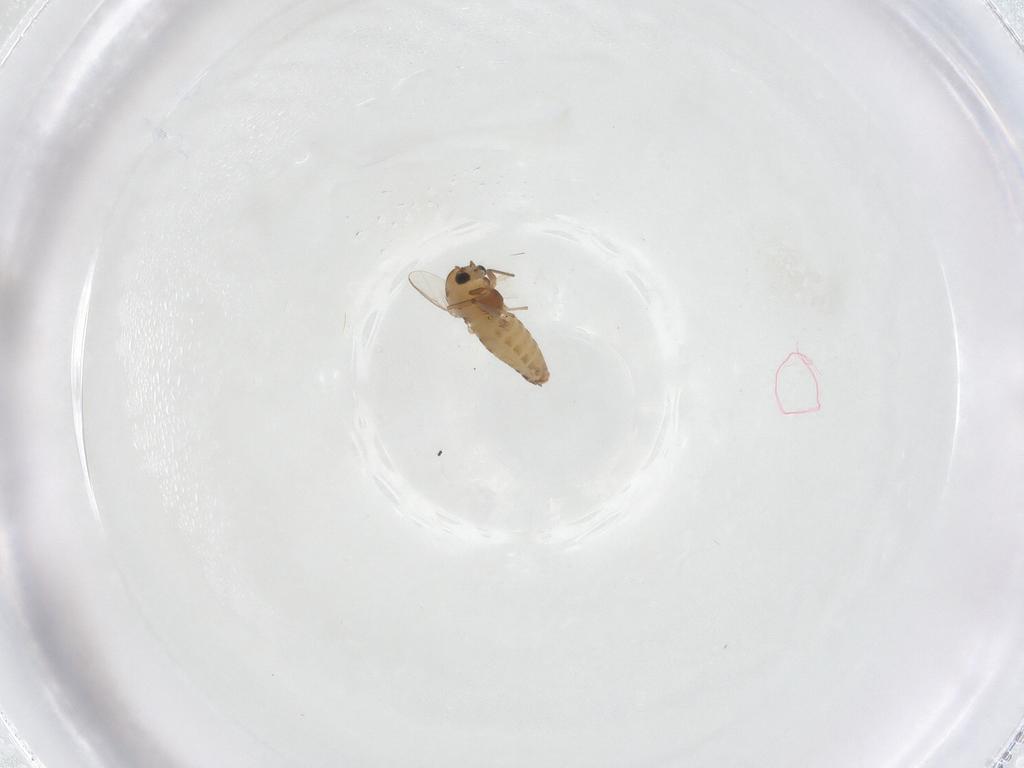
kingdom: Animalia
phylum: Arthropoda
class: Insecta
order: Diptera
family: Chironomidae
